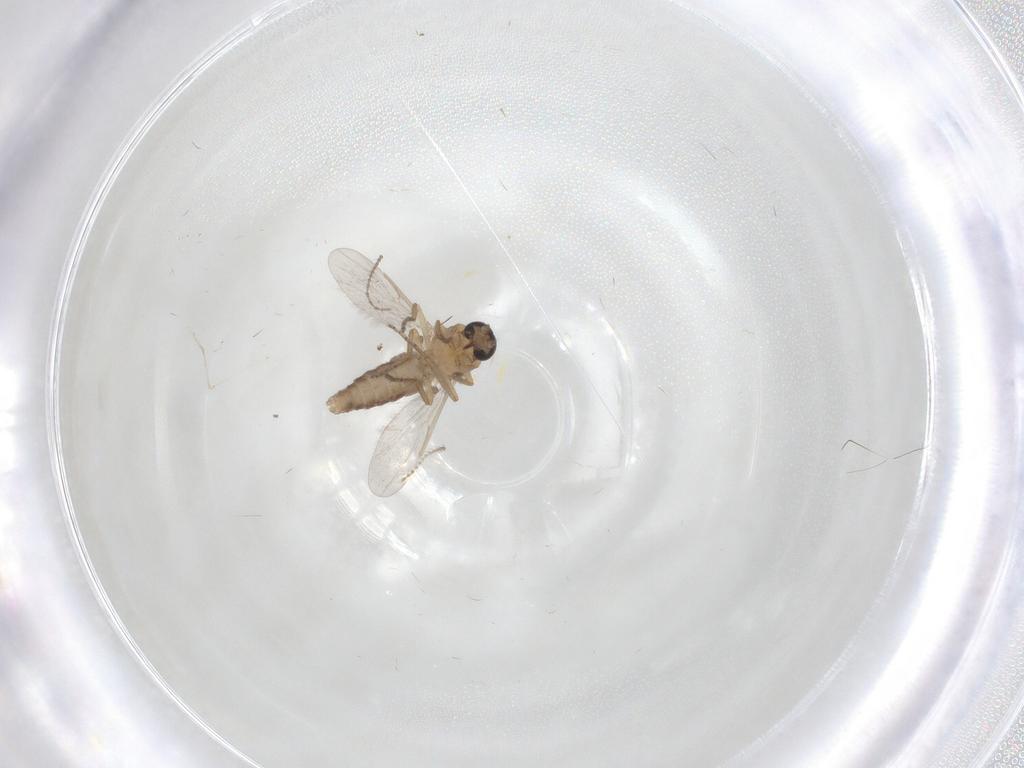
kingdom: Animalia
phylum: Arthropoda
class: Insecta
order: Diptera
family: Ceratopogonidae
